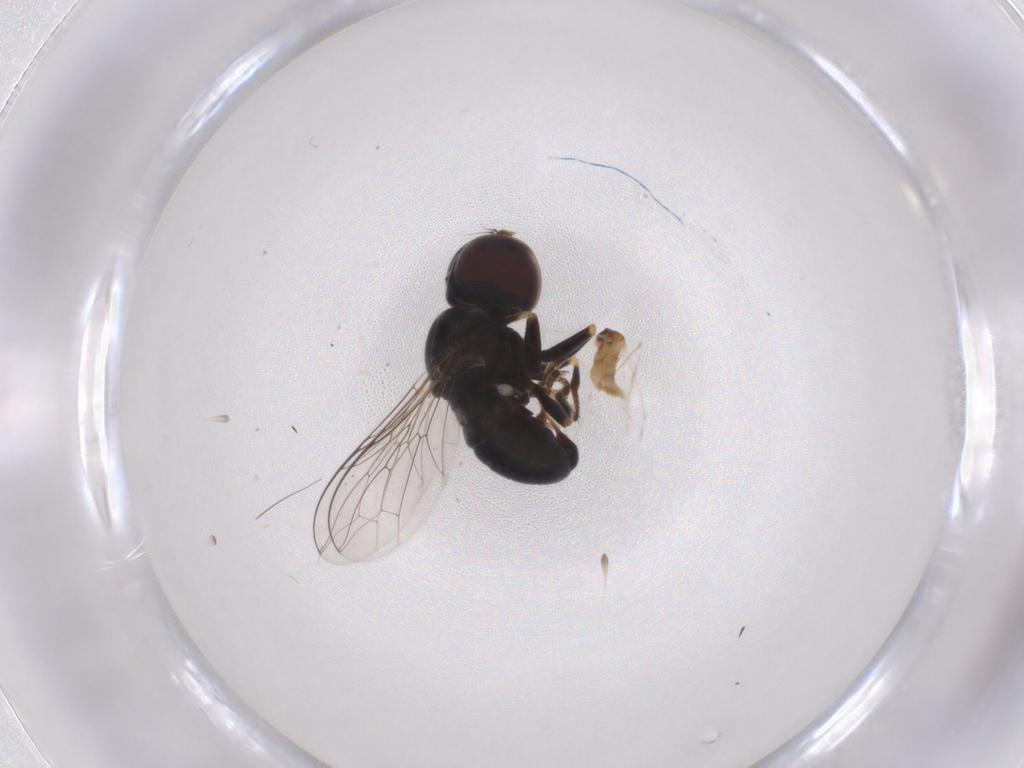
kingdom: Animalia
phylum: Arthropoda
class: Insecta
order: Diptera
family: Pipunculidae
